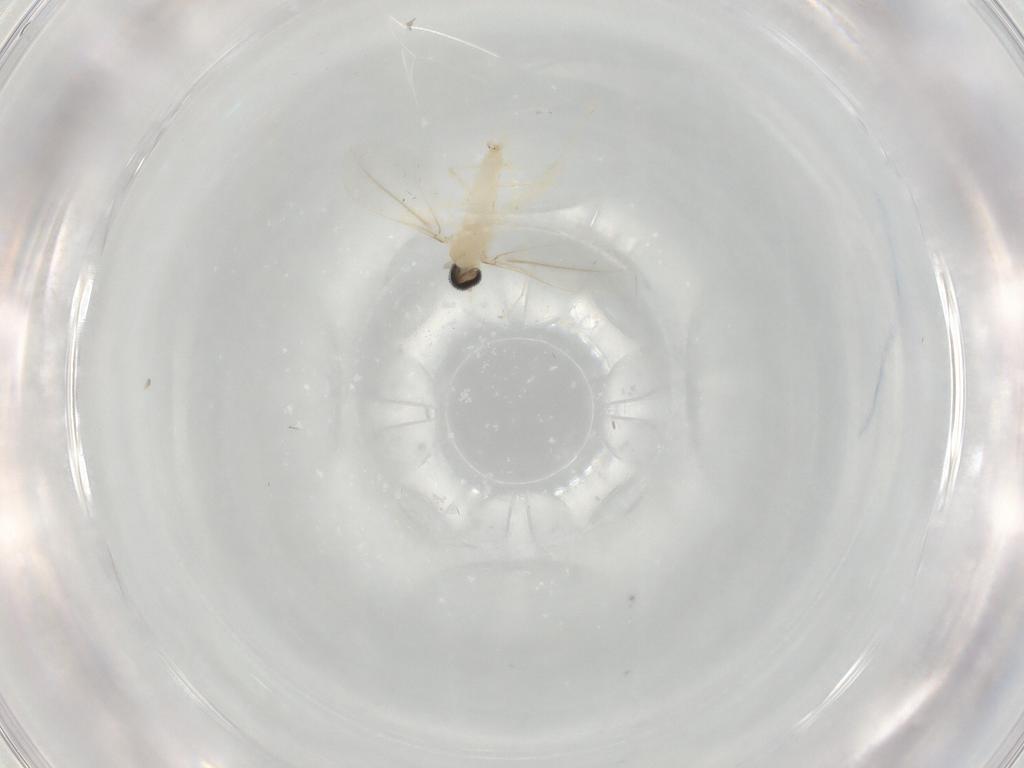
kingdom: Animalia
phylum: Arthropoda
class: Insecta
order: Diptera
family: Cecidomyiidae
